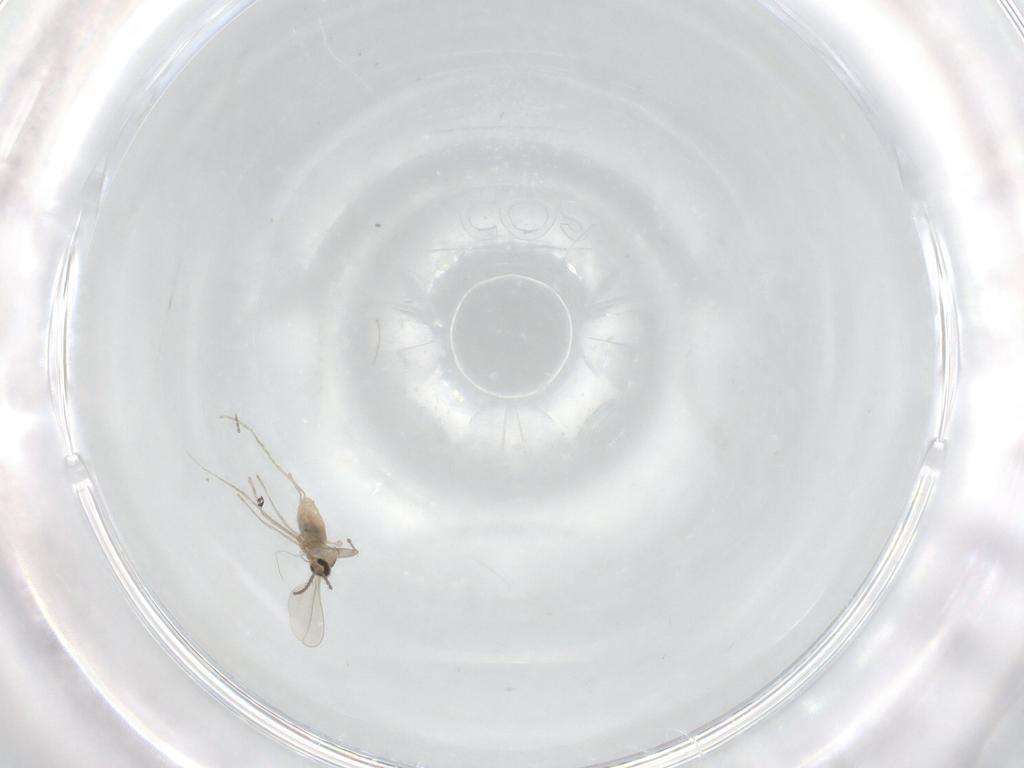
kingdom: Animalia
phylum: Arthropoda
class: Insecta
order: Diptera
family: Cecidomyiidae
